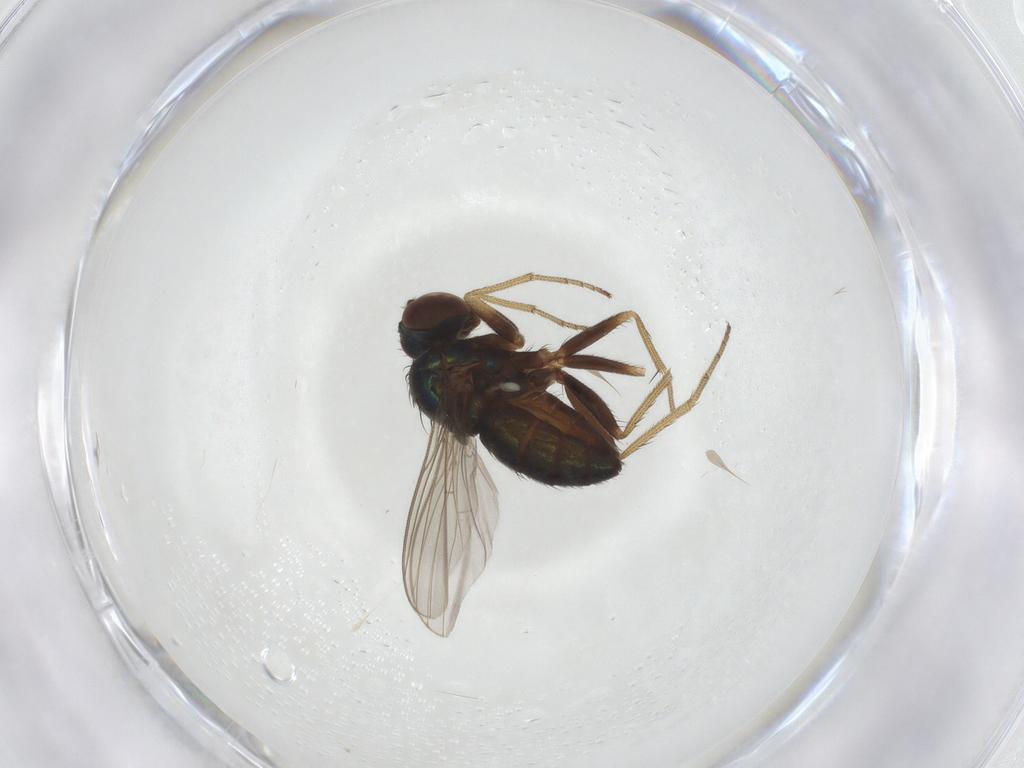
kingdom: Animalia
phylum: Arthropoda
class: Insecta
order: Diptera
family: Dolichopodidae
